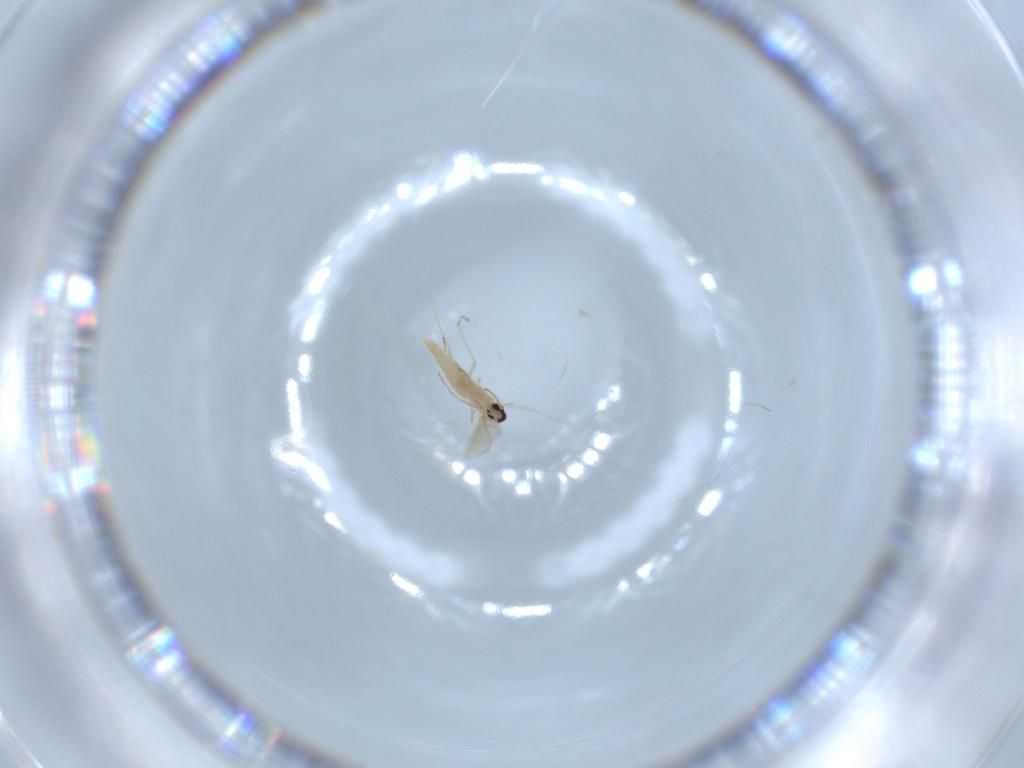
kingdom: Animalia
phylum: Arthropoda
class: Insecta
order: Diptera
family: Cecidomyiidae
